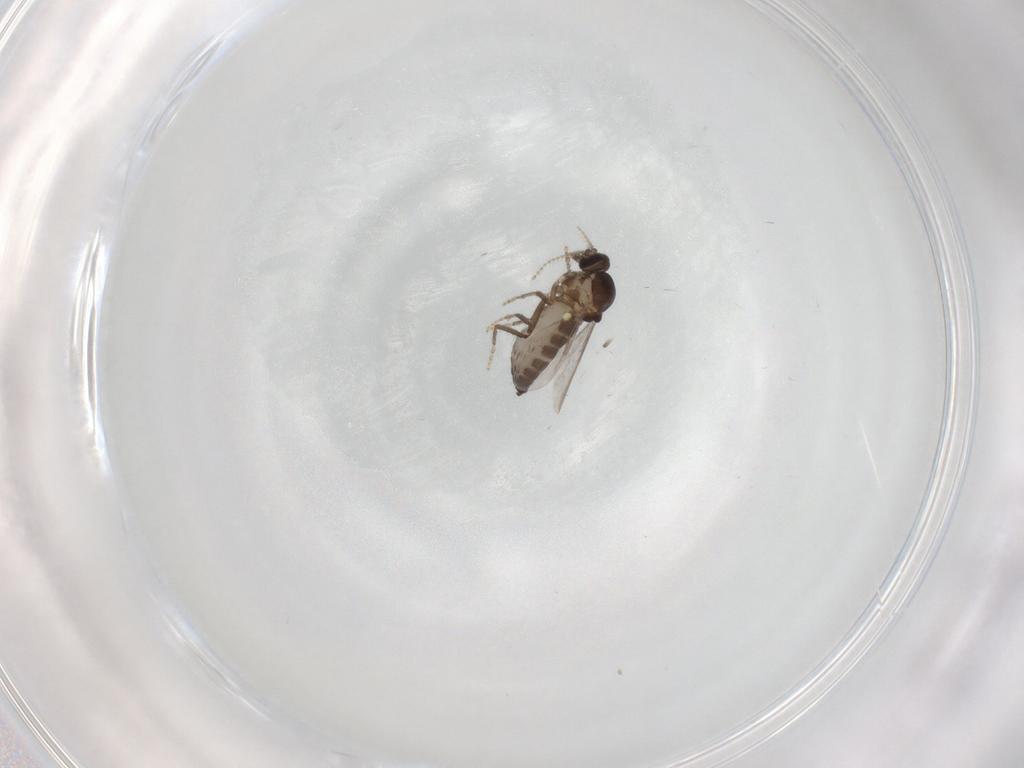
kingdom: Animalia
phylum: Arthropoda
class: Insecta
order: Diptera
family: Ceratopogonidae
